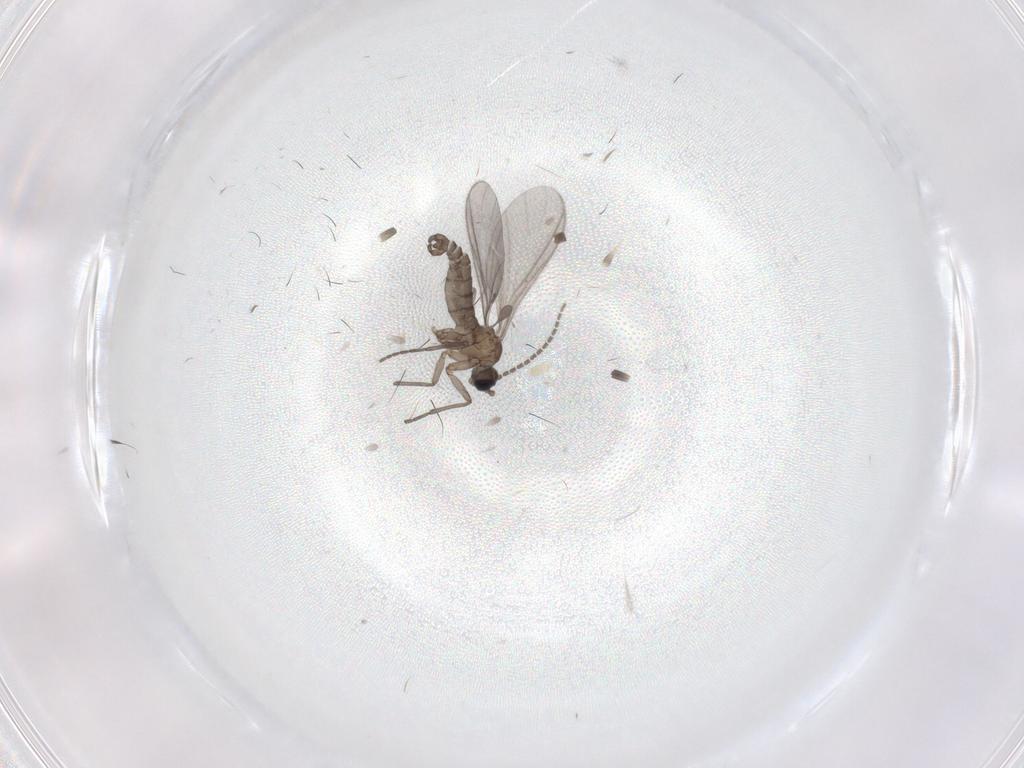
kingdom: Animalia
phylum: Arthropoda
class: Insecta
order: Diptera
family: Sciaridae
